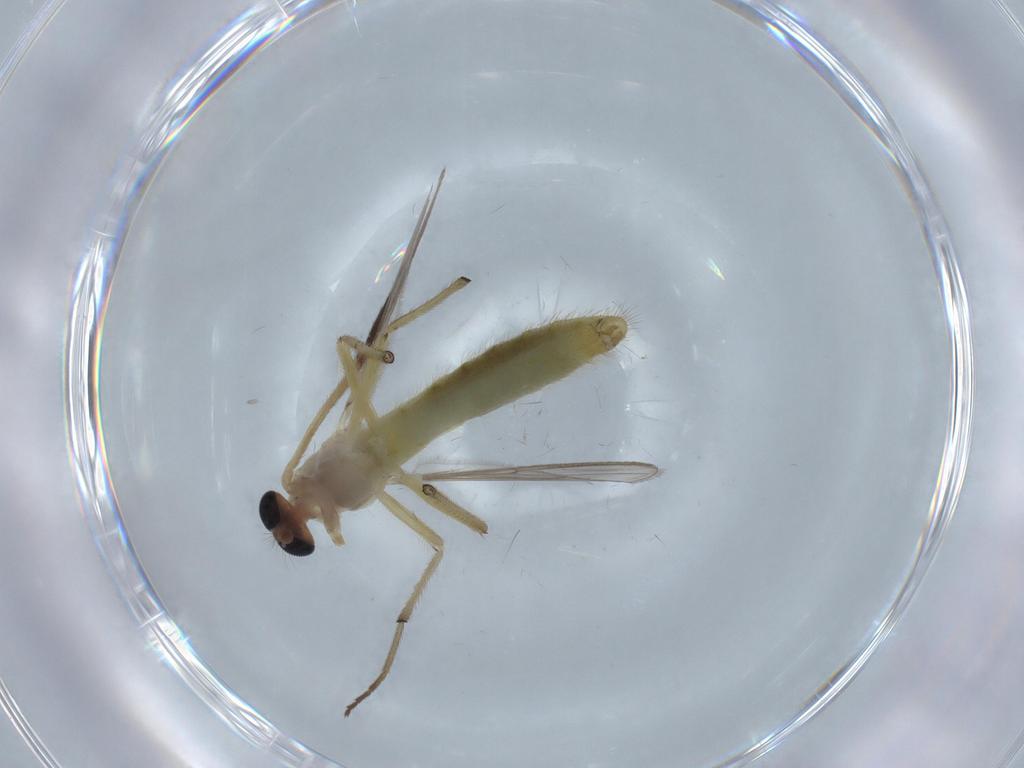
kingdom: Animalia
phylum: Arthropoda
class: Insecta
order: Diptera
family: Chironomidae
